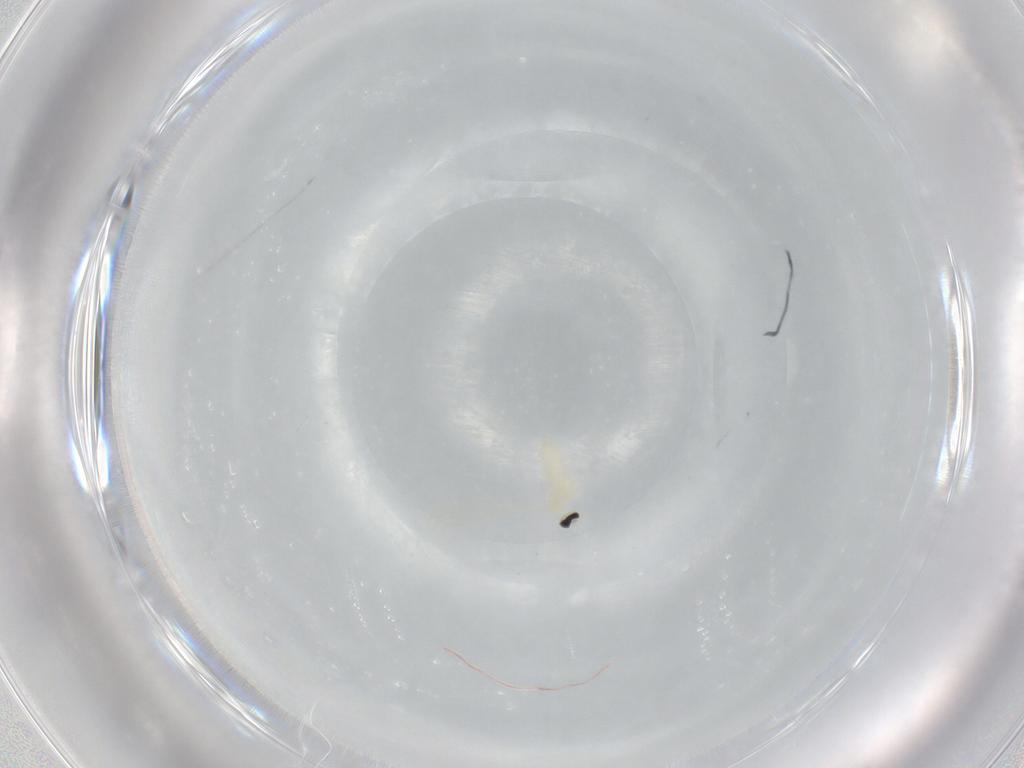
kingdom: Animalia
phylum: Arthropoda
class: Insecta
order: Diptera
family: Cecidomyiidae
